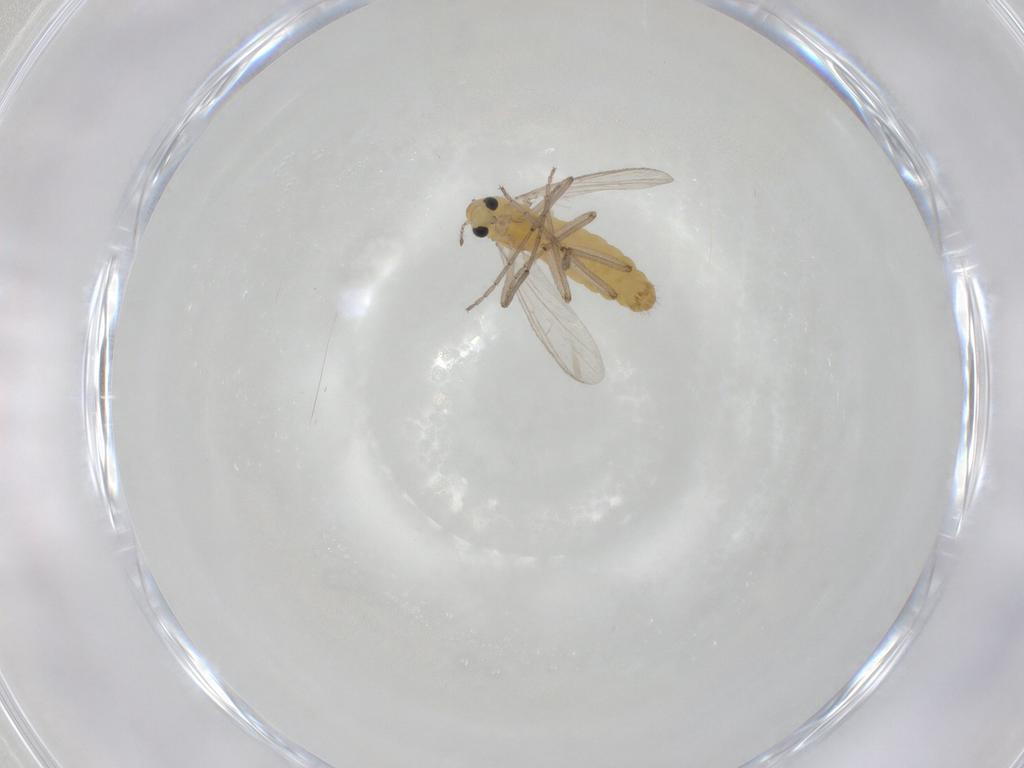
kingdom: Animalia
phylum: Arthropoda
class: Insecta
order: Diptera
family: Chironomidae
